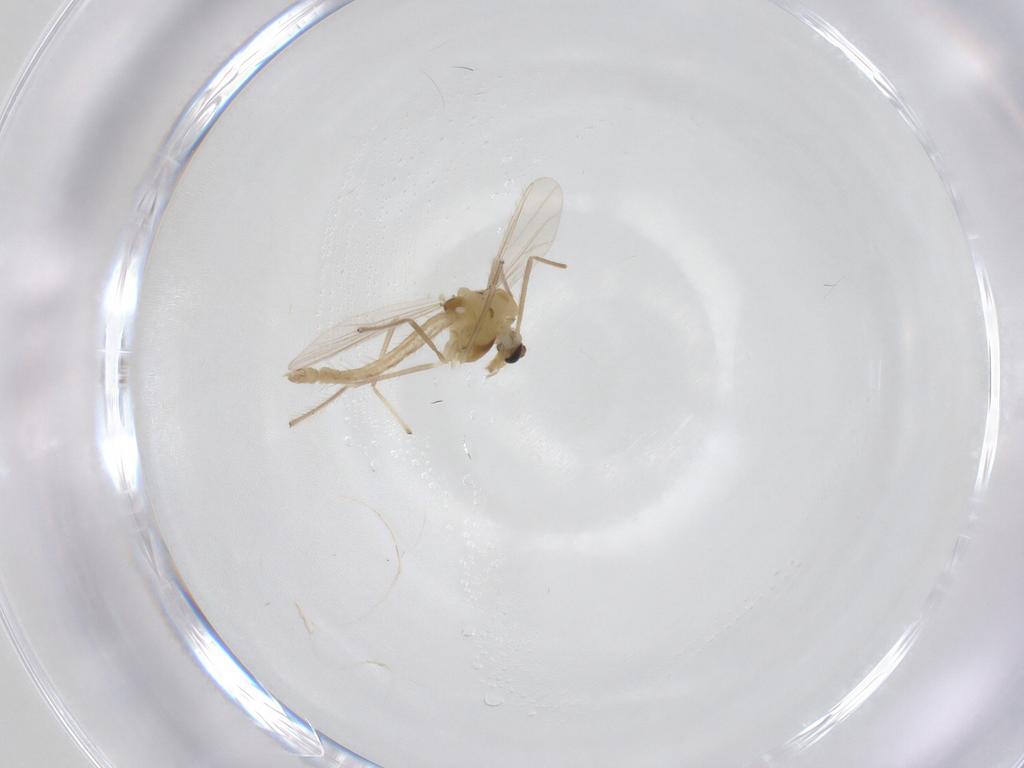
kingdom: Animalia
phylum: Arthropoda
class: Insecta
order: Diptera
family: Chironomidae
